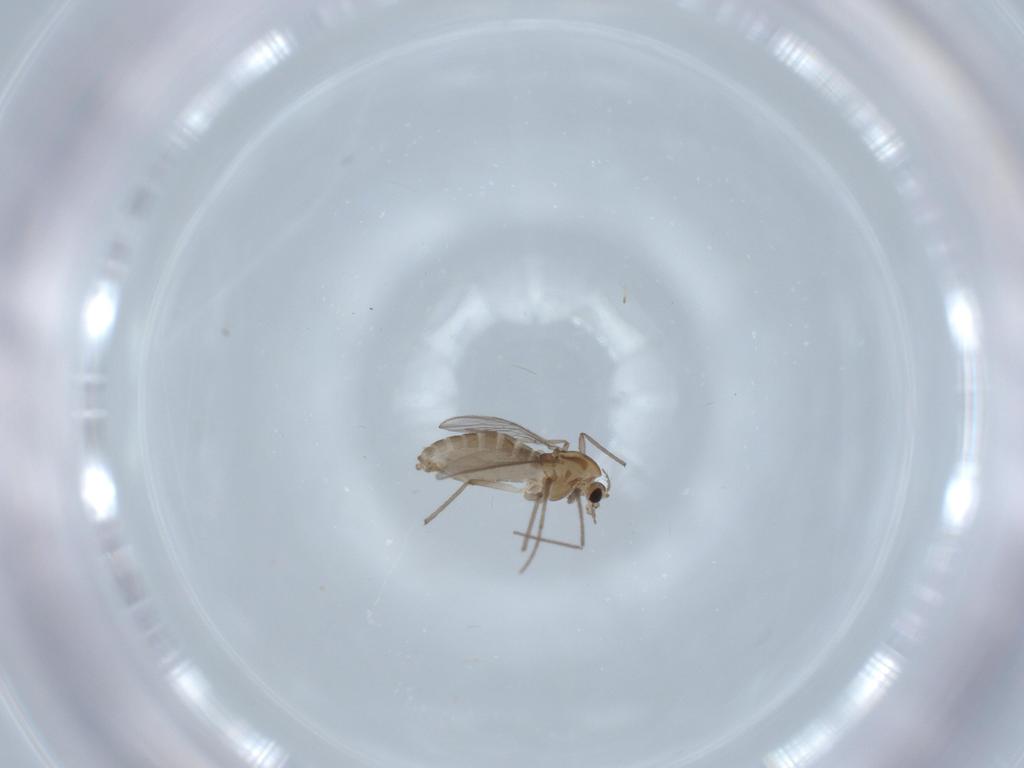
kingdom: Animalia
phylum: Arthropoda
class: Insecta
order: Diptera
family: Chironomidae
